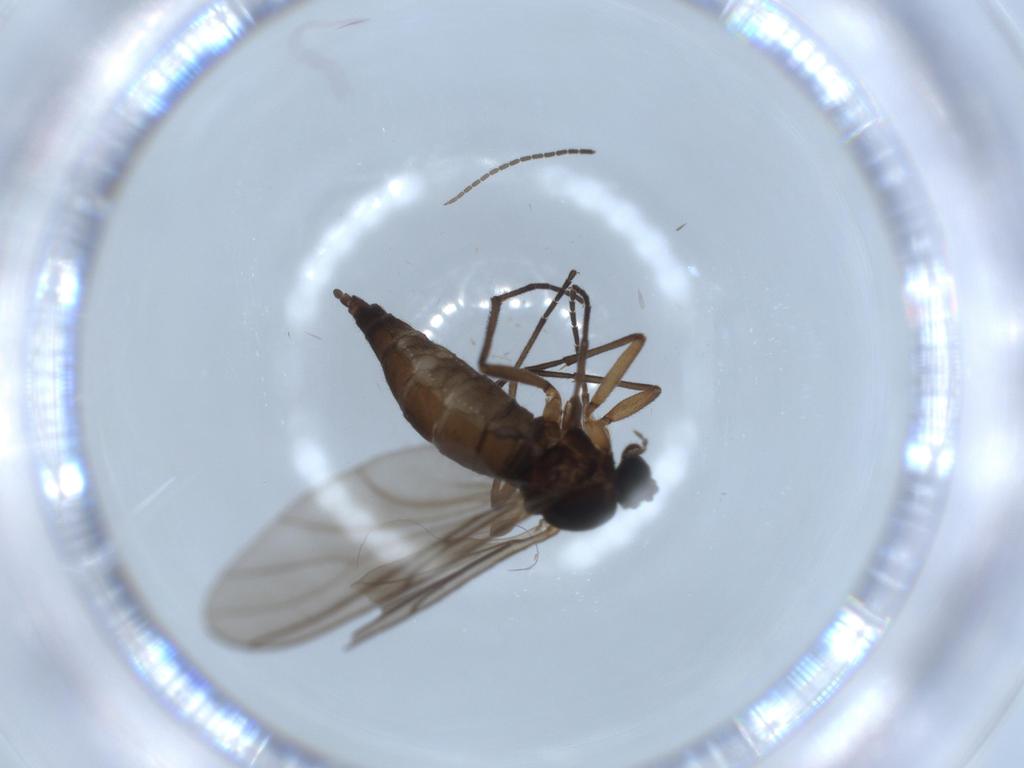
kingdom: Animalia
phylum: Arthropoda
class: Insecta
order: Diptera
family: Sciaridae
